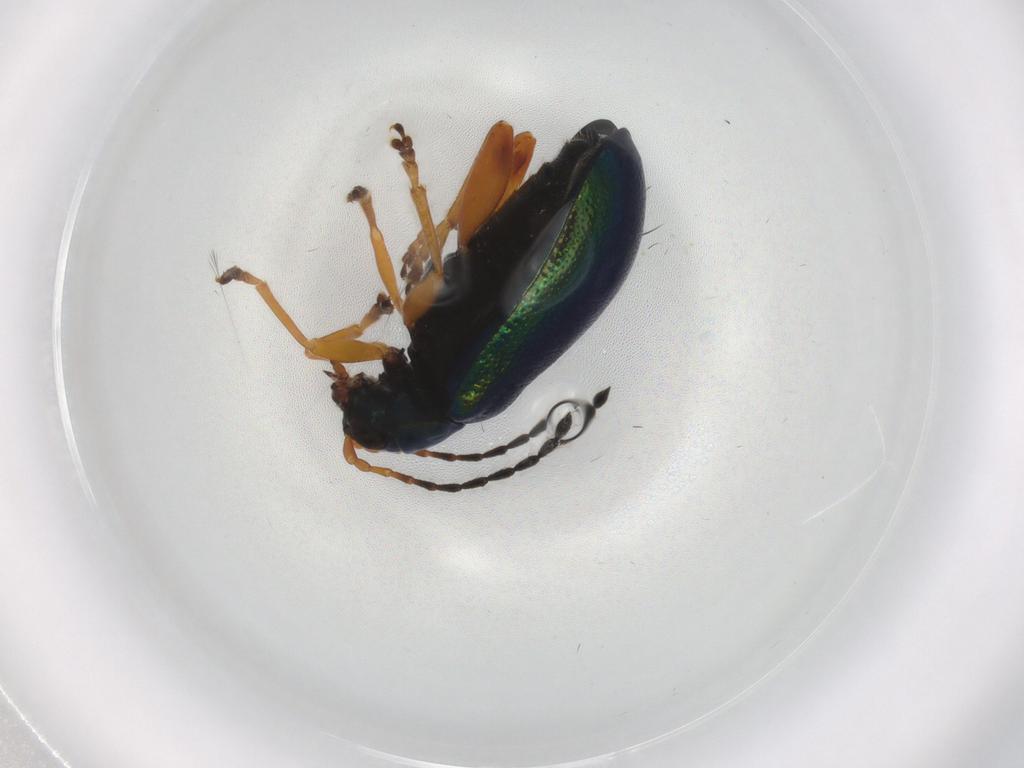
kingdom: Animalia
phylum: Arthropoda
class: Insecta
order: Coleoptera
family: Chrysomelidae
